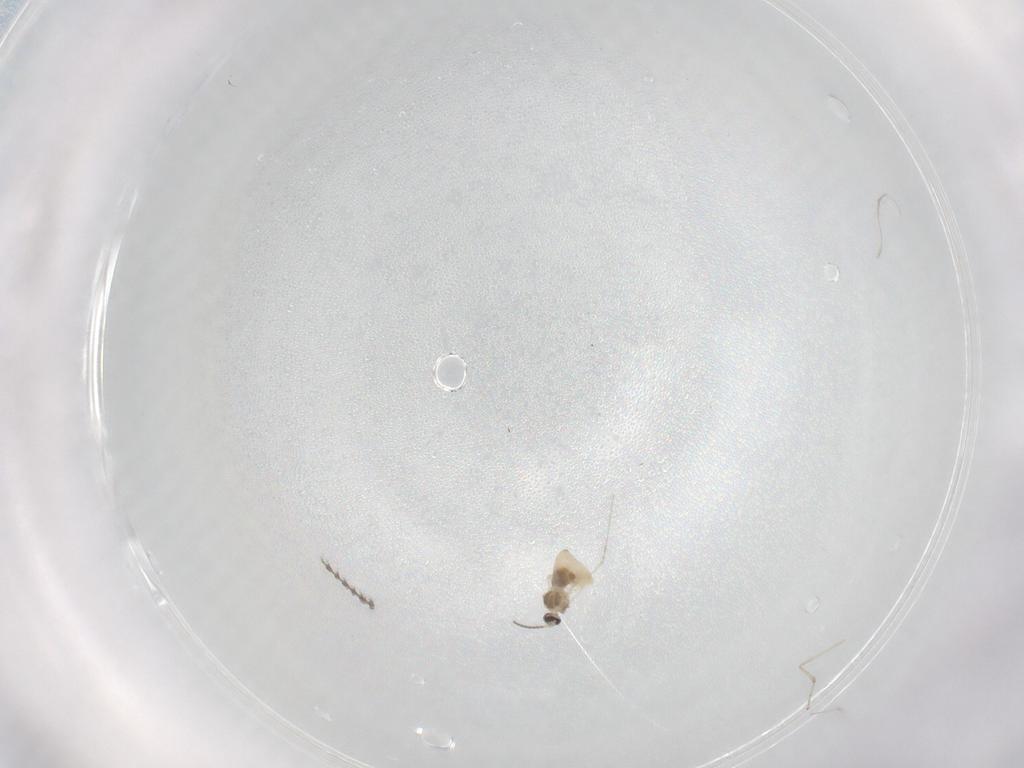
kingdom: Animalia
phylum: Arthropoda
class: Insecta
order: Diptera
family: Cecidomyiidae
